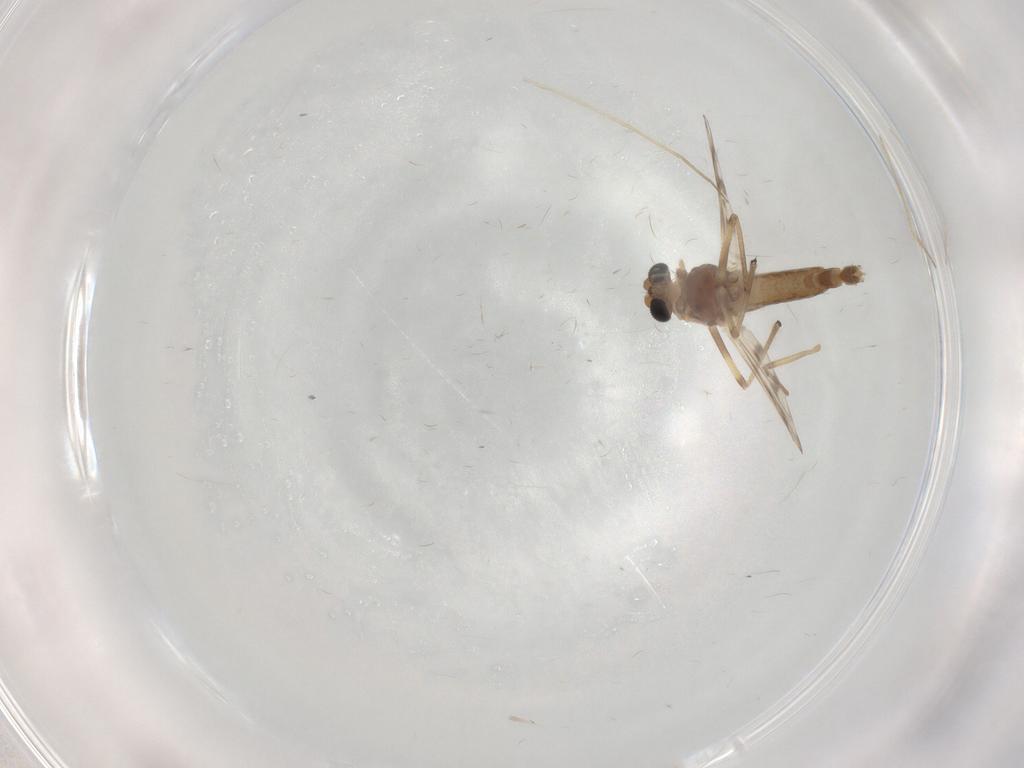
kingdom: Animalia
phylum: Arthropoda
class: Insecta
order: Diptera
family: Chironomidae
